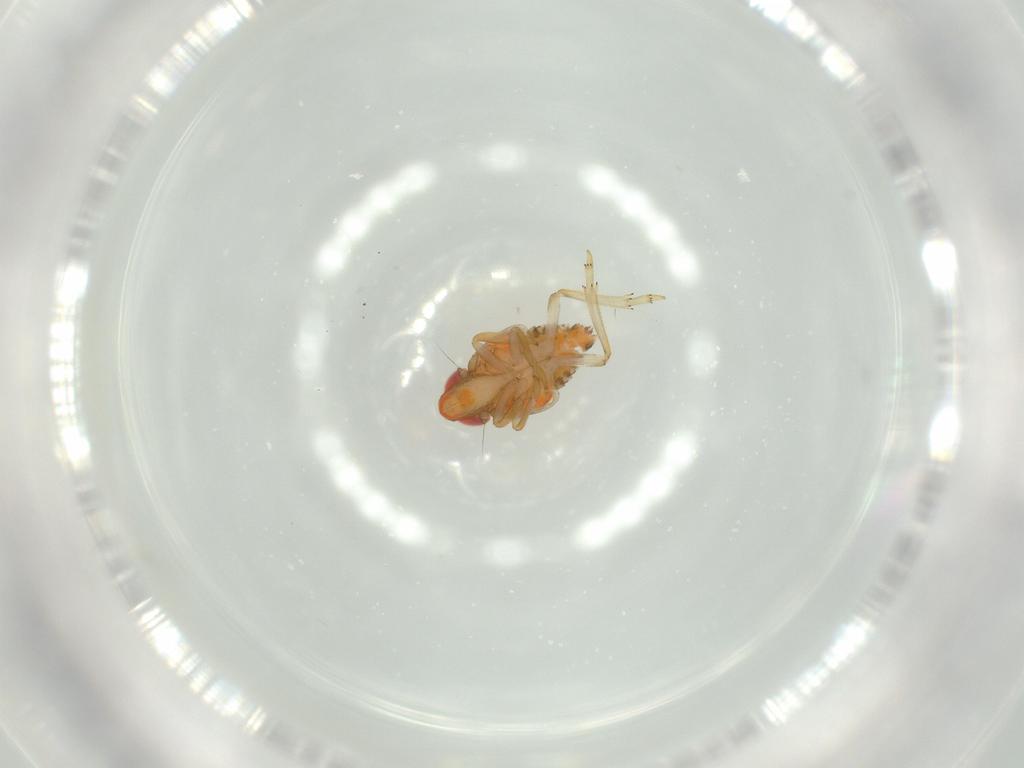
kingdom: Animalia
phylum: Arthropoda
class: Insecta
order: Hemiptera
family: Fulgoroidea_incertae_sedis
